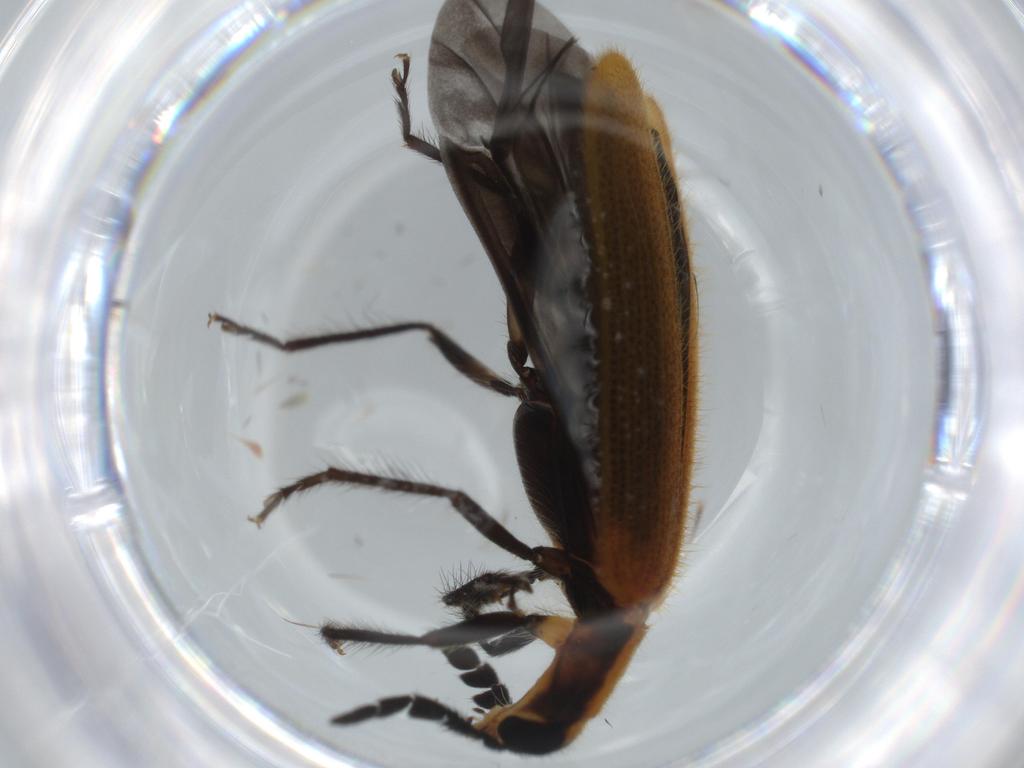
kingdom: Animalia
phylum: Arthropoda
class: Insecta
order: Coleoptera
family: Cleridae
